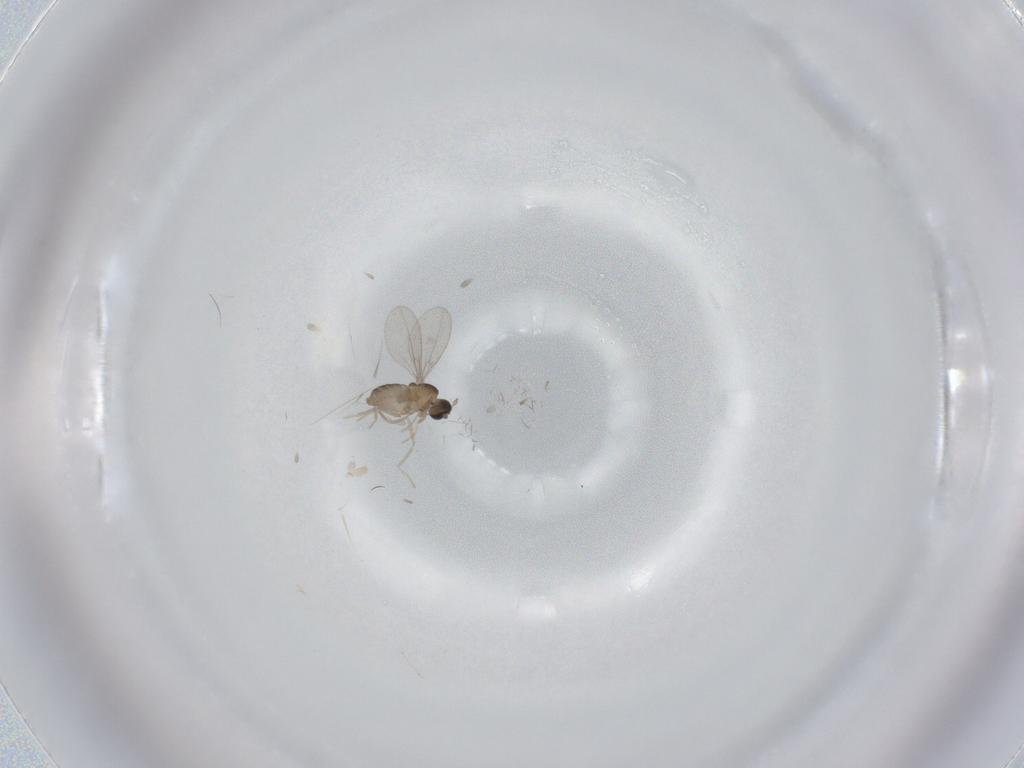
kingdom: Animalia
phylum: Arthropoda
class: Insecta
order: Diptera
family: Cecidomyiidae
